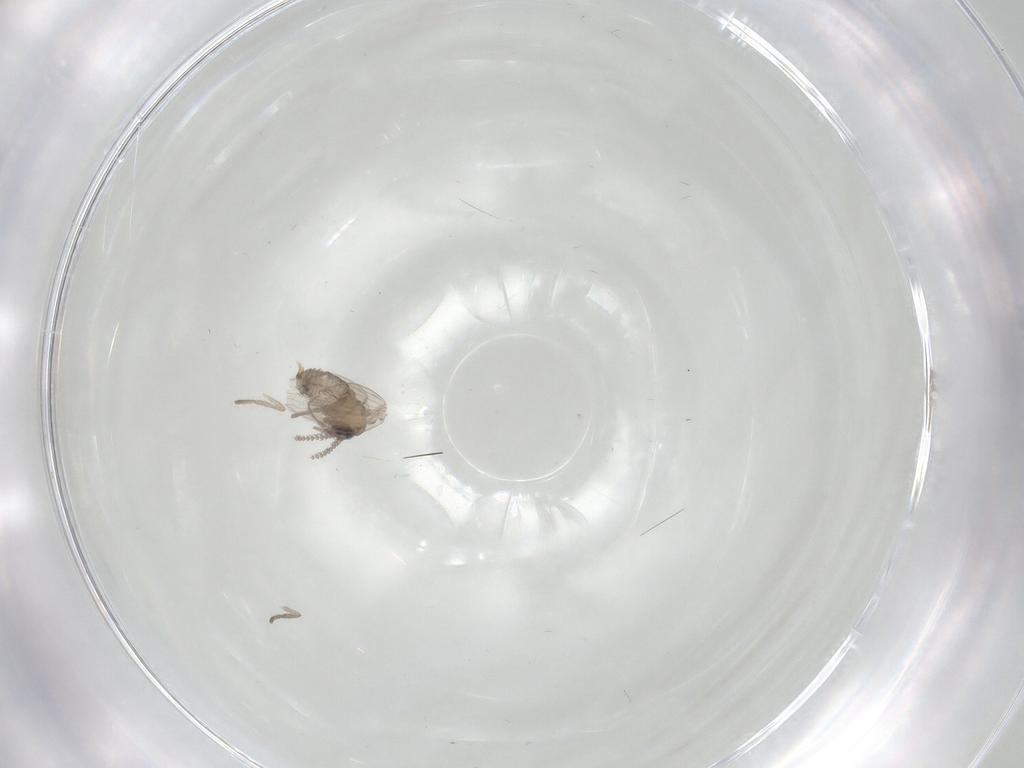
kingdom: Animalia
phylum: Arthropoda
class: Insecta
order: Diptera
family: Psychodidae
